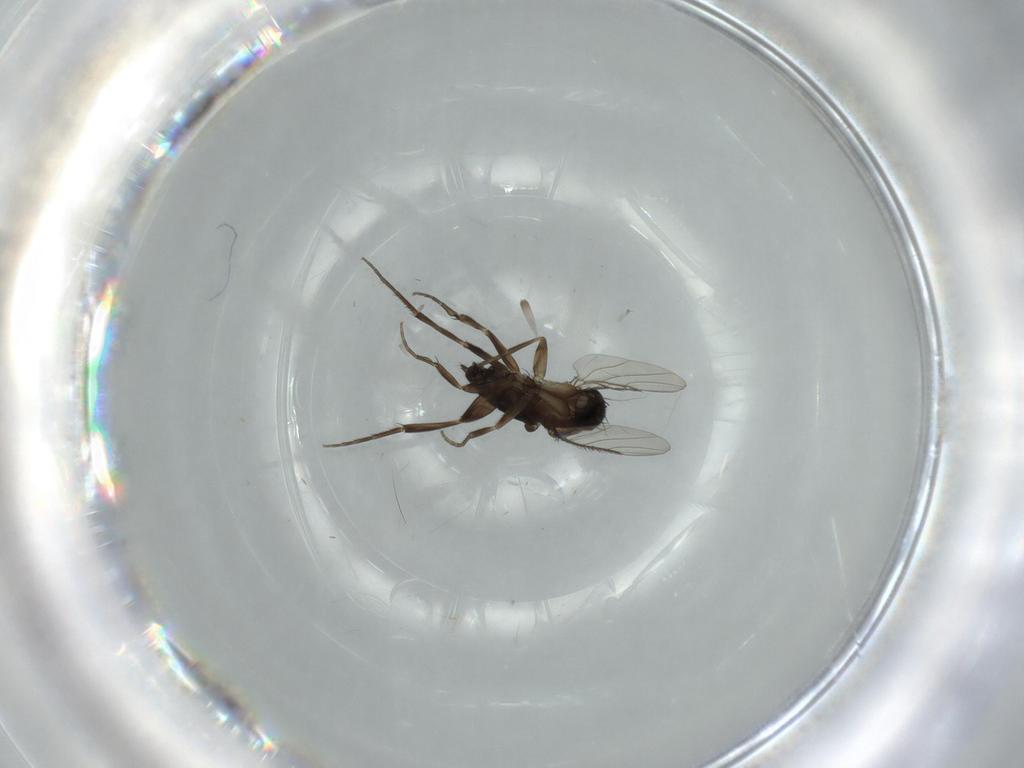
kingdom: Animalia
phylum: Arthropoda
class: Insecta
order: Diptera
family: Phoridae
